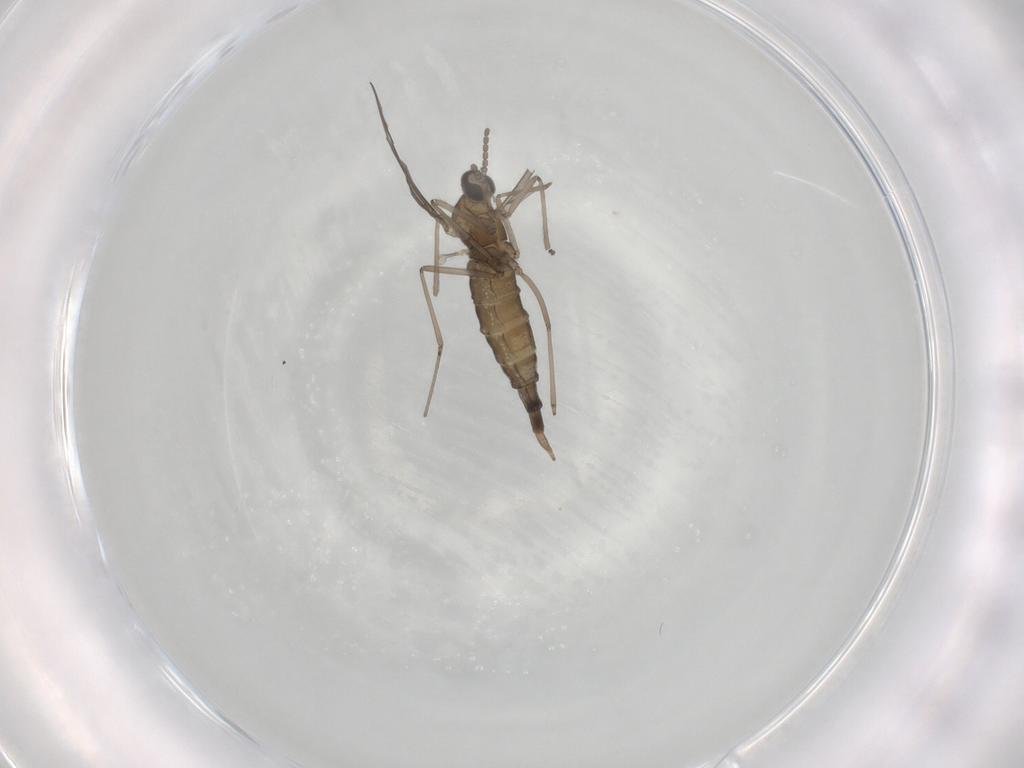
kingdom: Animalia
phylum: Arthropoda
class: Insecta
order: Diptera
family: Cecidomyiidae
